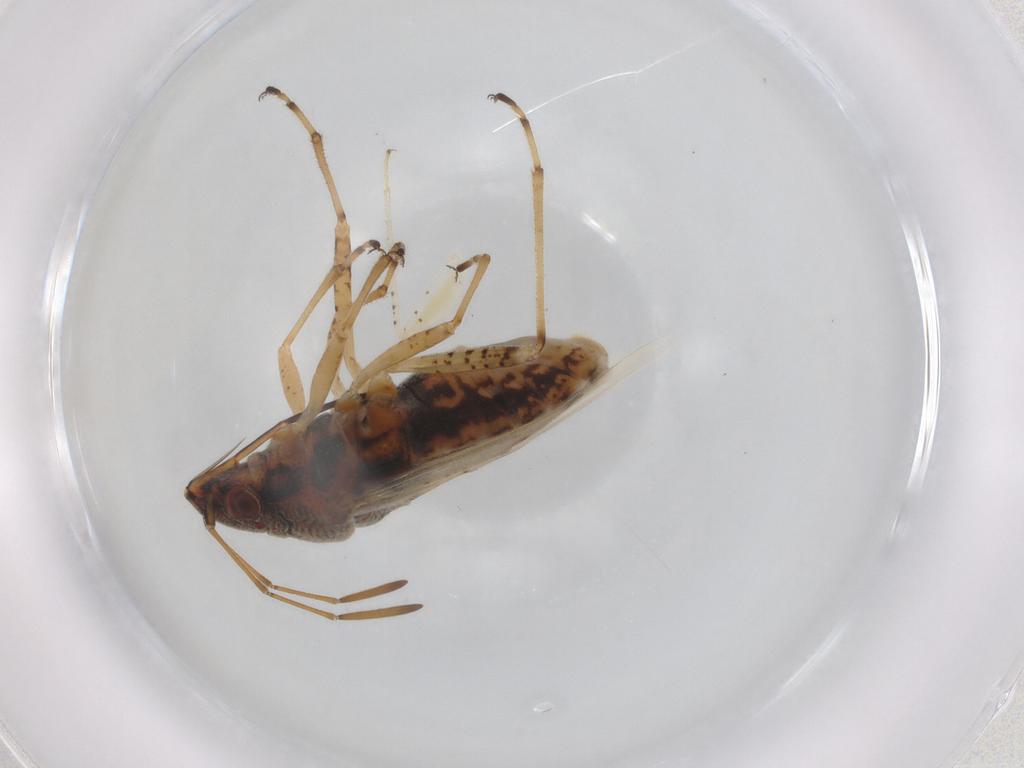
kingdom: Animalia
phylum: Arthropoda
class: Insecta
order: Hemiptera
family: Lygaeidae
